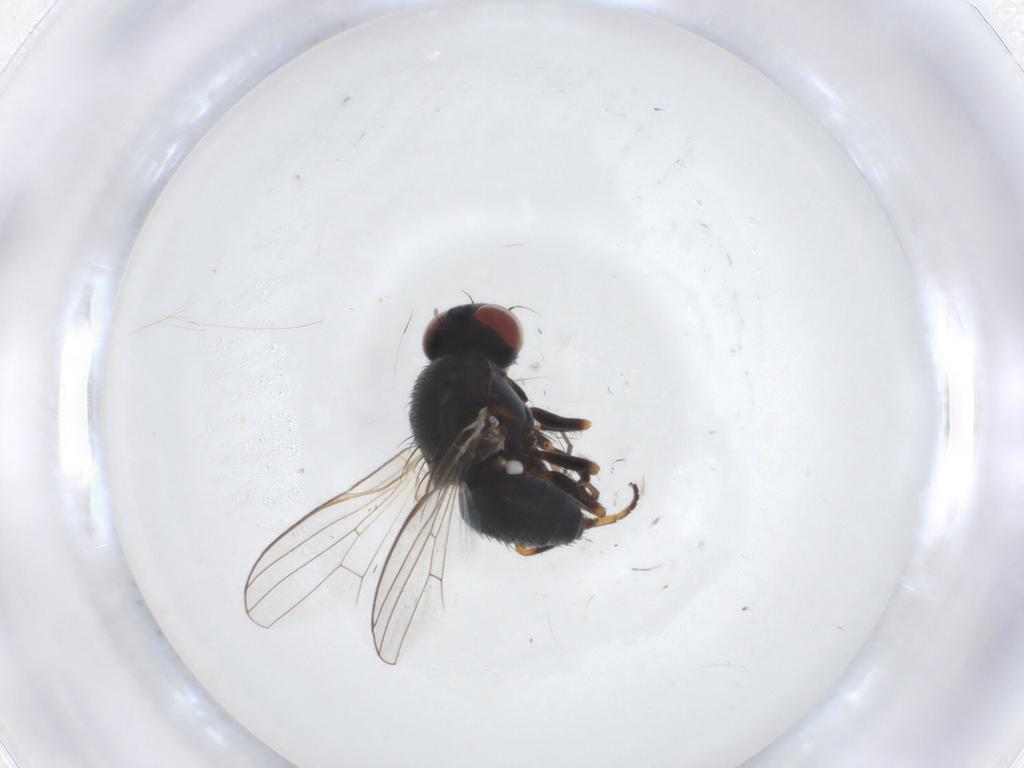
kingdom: Animalia
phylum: Arthropoda
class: Insecta
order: Diptera
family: Chamaemyiidae
